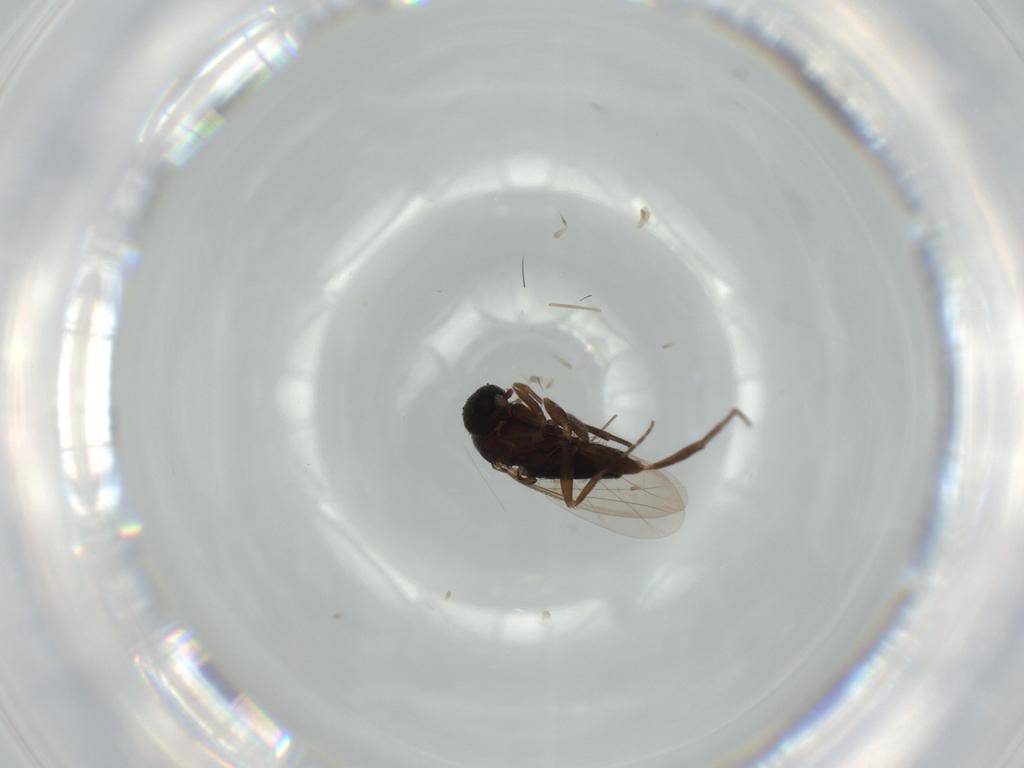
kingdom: Animalia
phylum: Arthropoda
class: Insecta
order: Diptera
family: Phoridae
